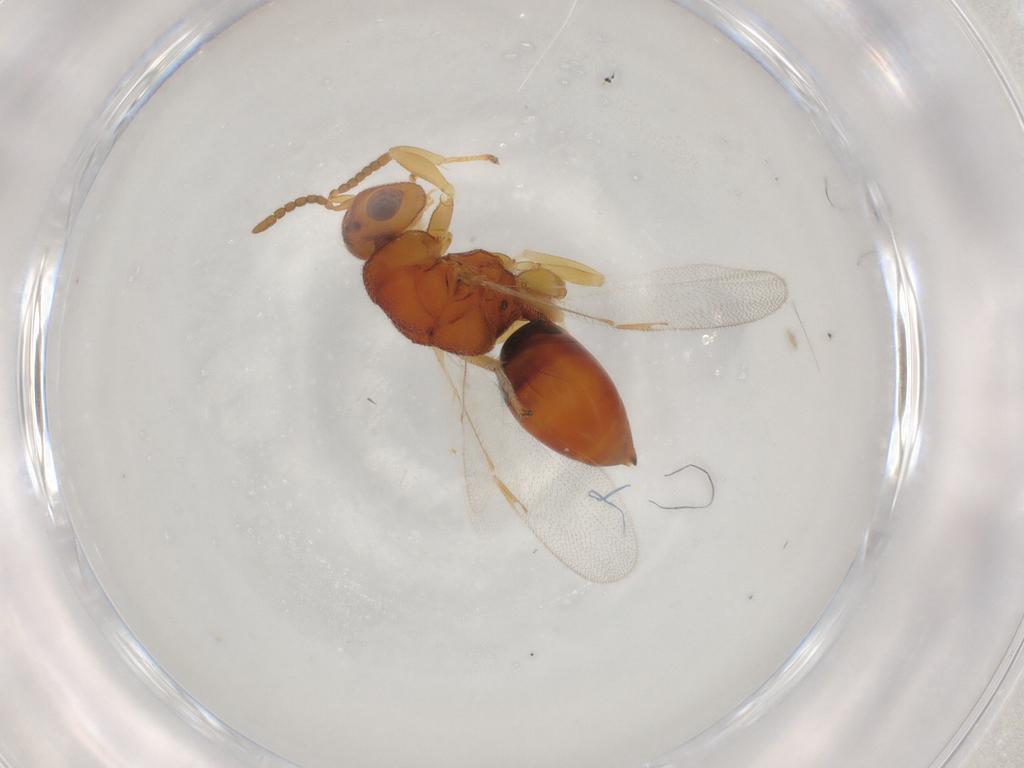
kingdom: Animalia
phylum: Arthropoda
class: Insecta
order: Hymenoptera
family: Eurytomidae
